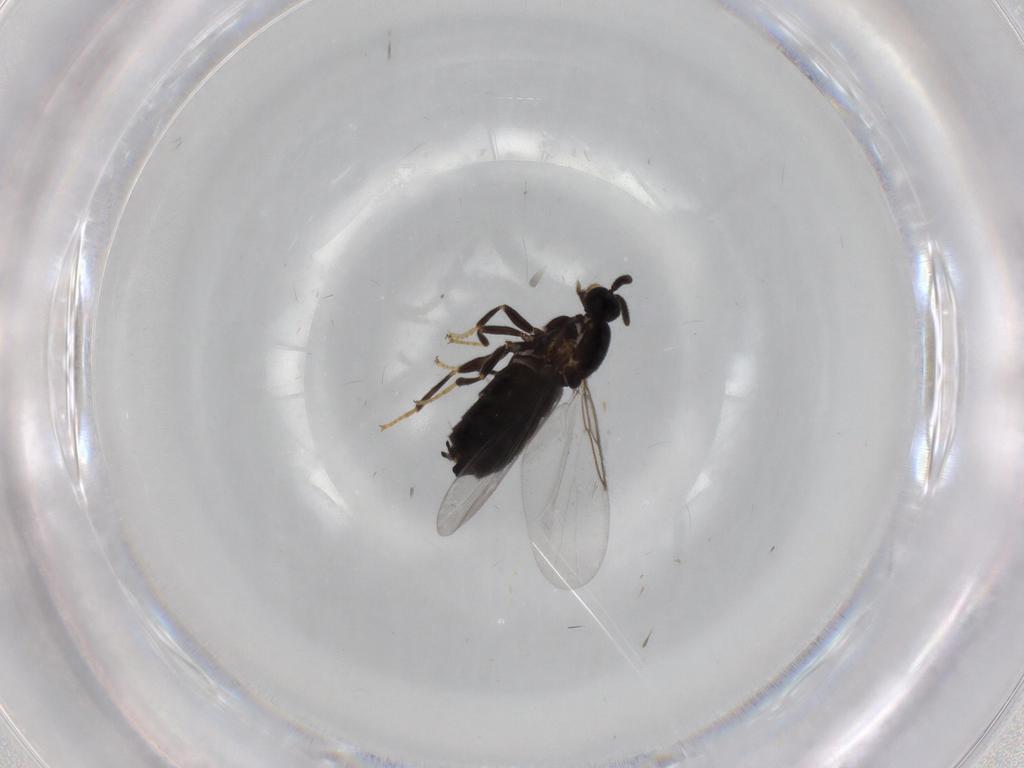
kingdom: Animalia
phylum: Arthropoda
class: Insecta
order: Diptera
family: Scatopsidae
